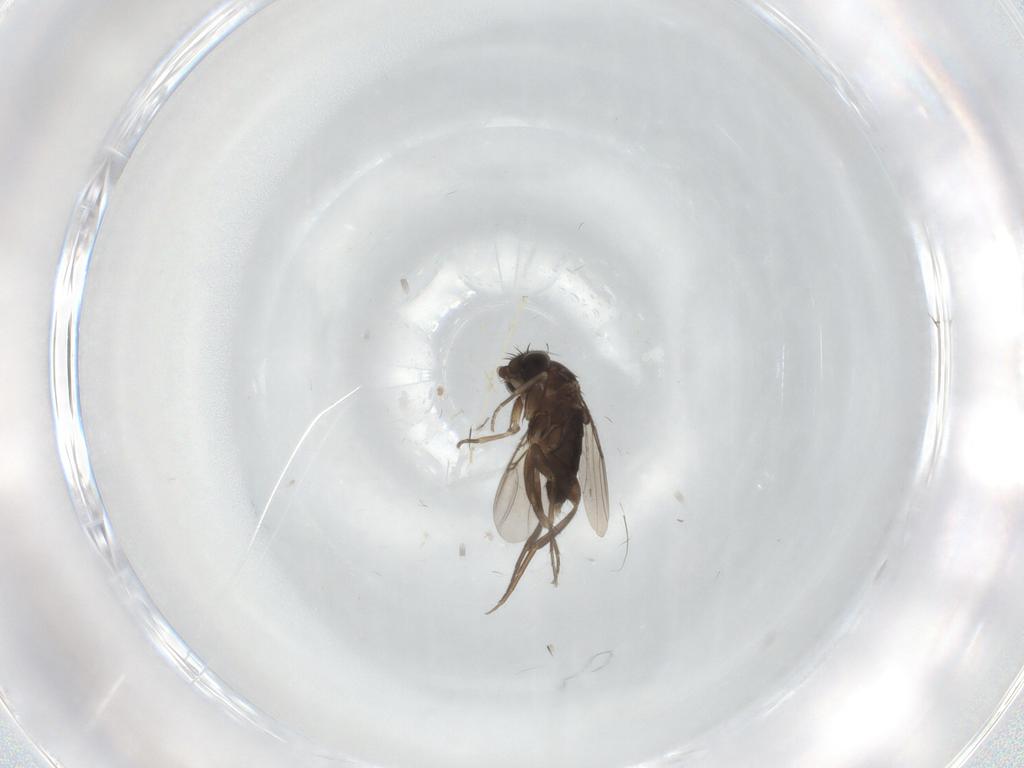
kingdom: Animalia
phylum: Arthropoda
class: Insecta
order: Diptera
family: Cecidomyiidae
